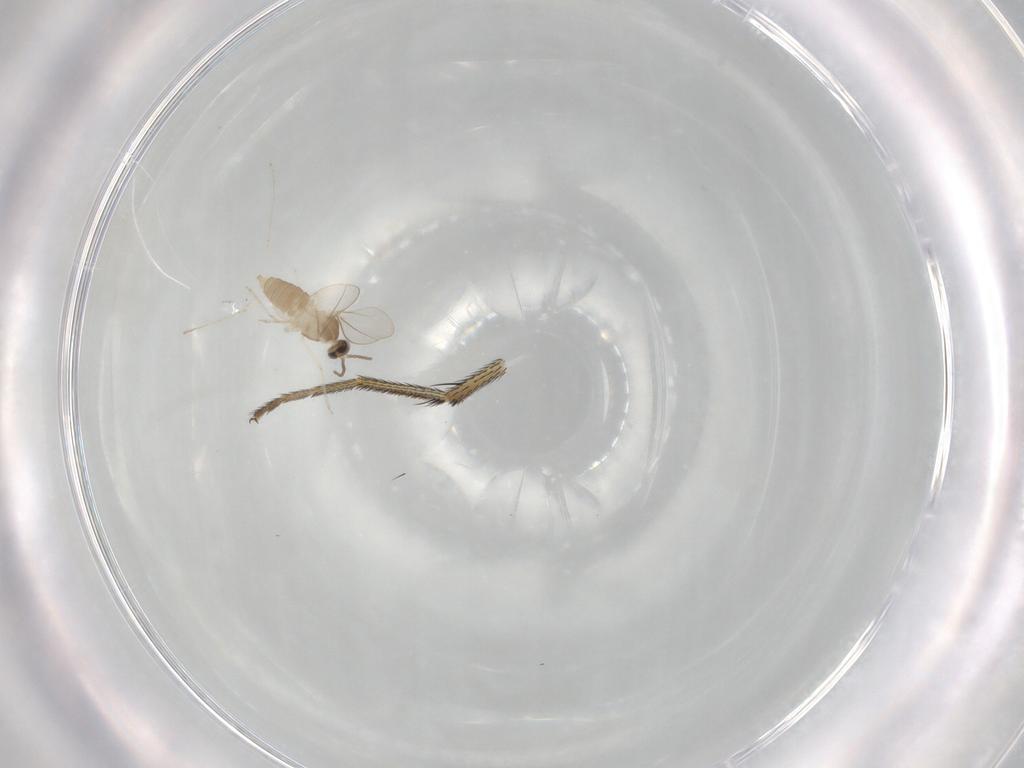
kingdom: Animalia
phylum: Arthropoda
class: Insecta
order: Diptera
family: Cecidomyiidae
